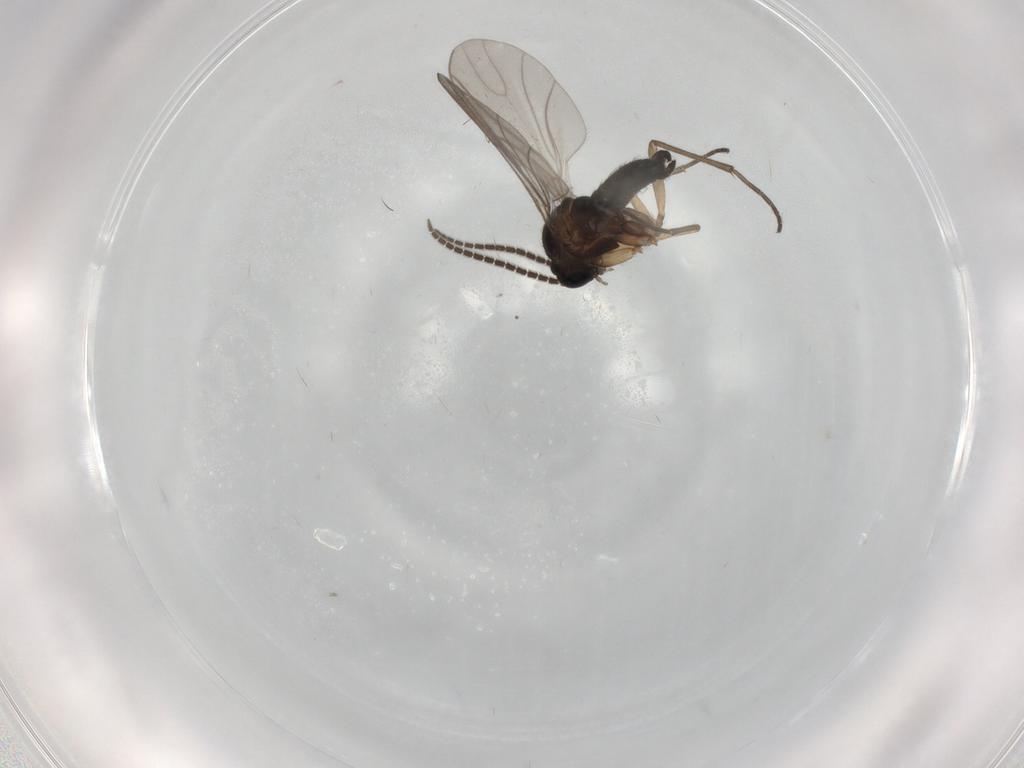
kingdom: Animalia
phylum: Arthropoda
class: Insecta
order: Diptera
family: Sciaridae
